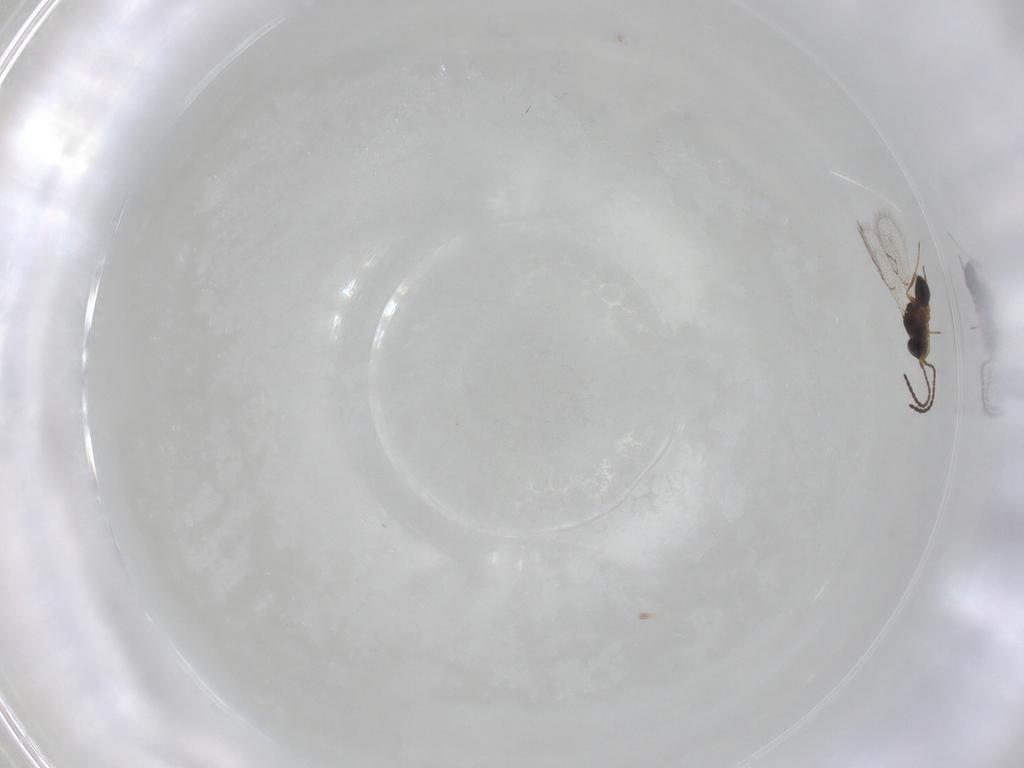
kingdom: Animalia
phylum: Arthropoda
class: Insecta
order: Hymenoptera
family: Figitidae
